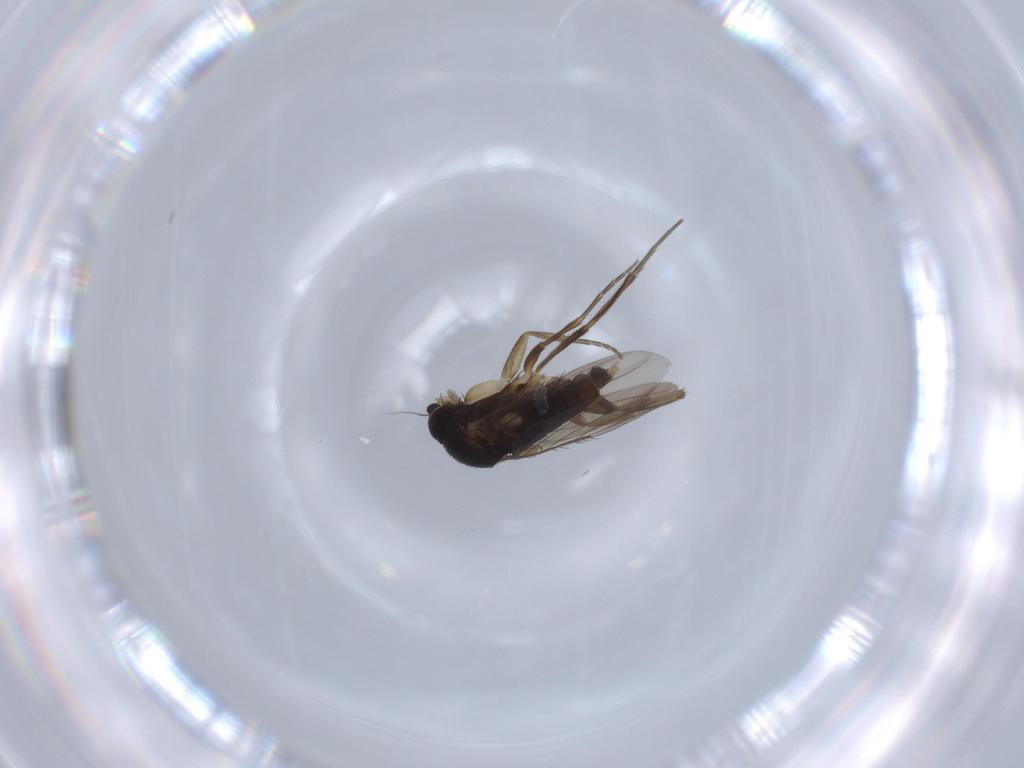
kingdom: Animalia
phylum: Arthropoda
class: Insecta
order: Diptera
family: Phoridae
